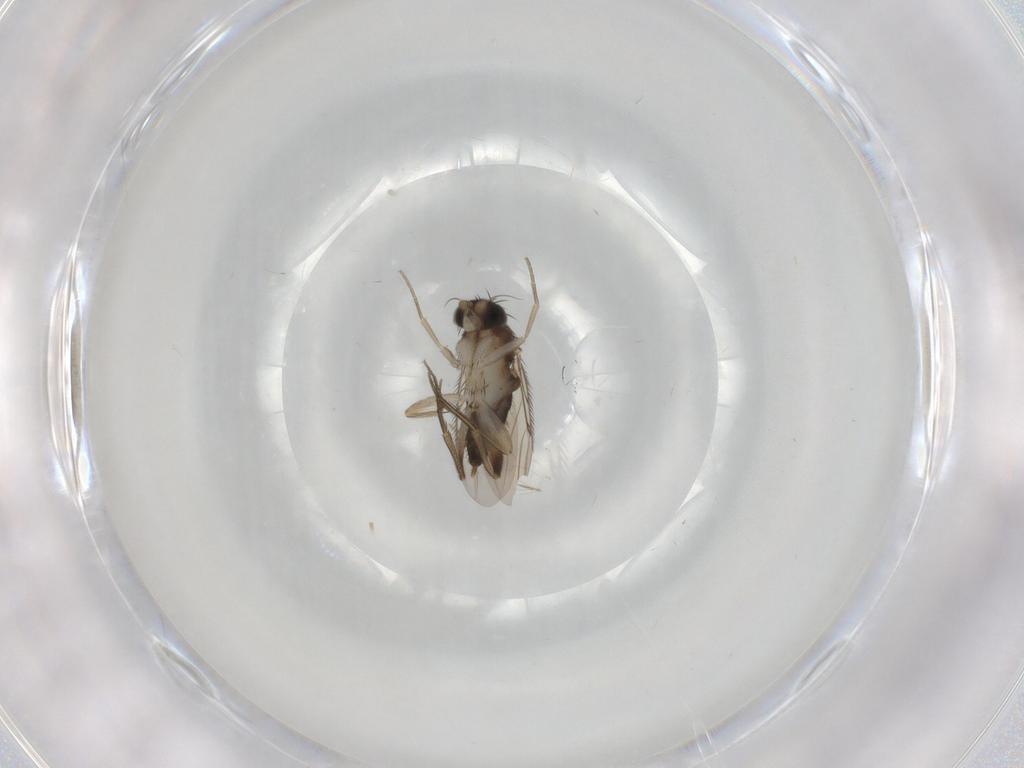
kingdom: Animalia
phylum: Arthropoda
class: Insecta
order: Diptera
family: Phoridae
